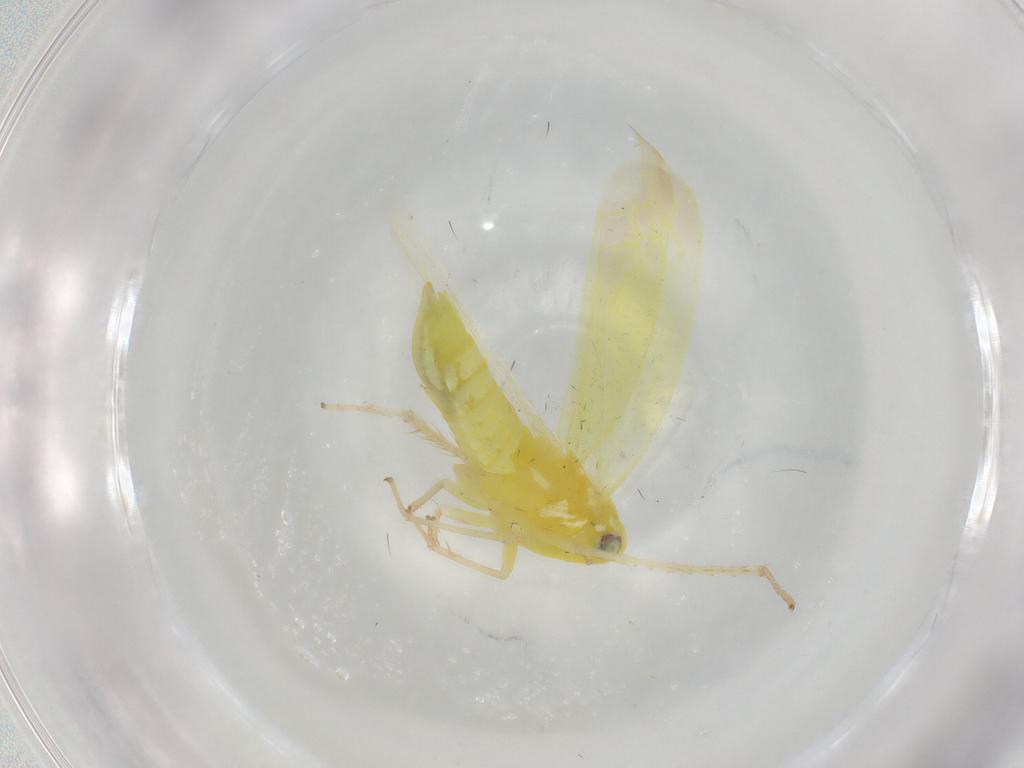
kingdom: Animalia
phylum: Arthropoda
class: Insecta
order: Hemiptera
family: Cicadellidae
